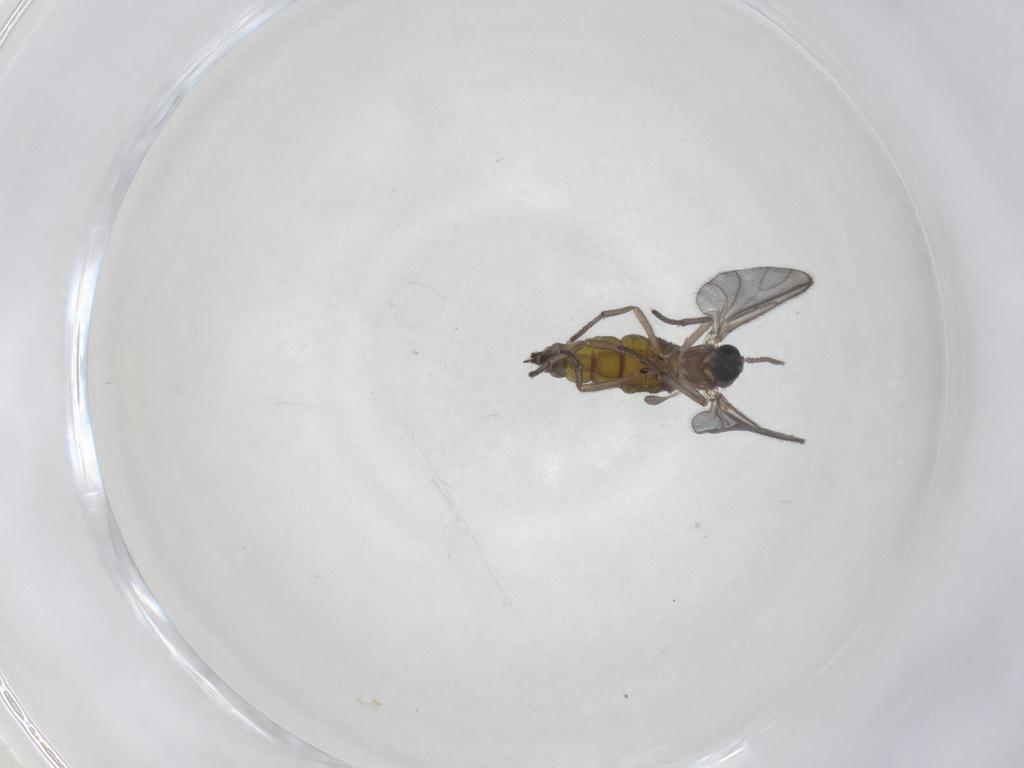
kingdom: Animalia
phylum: Arthropoda
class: Insecta
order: Diptera
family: Sciaridae
